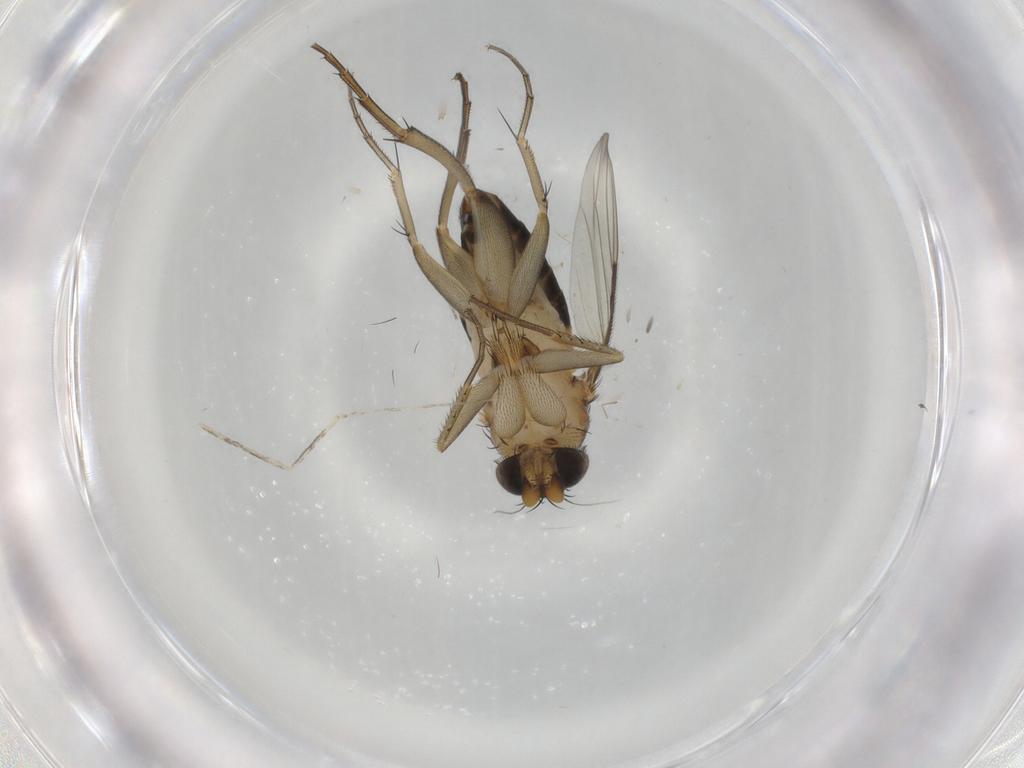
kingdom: Animalia
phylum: Arthropoda
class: Insecta
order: Diptera
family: Phoridae
